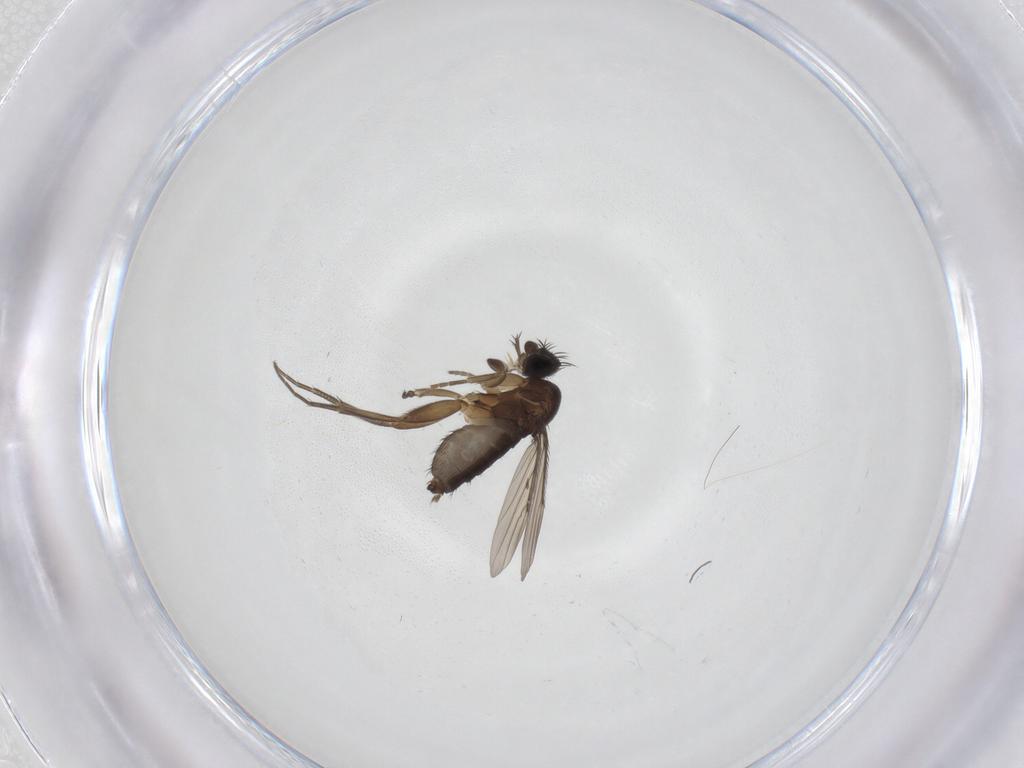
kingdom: Animalia
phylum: Arthropoda
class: Insecta
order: Diptera
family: Phoridae
